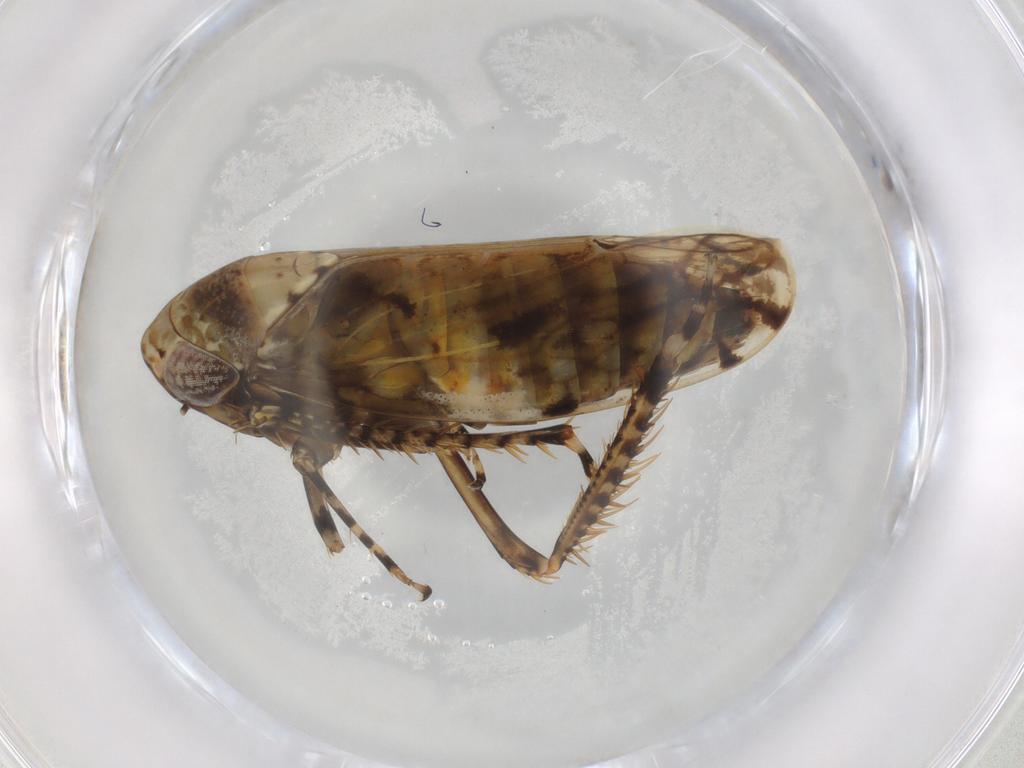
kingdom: Animalia
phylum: Arthropoda
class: Insecta
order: Hemiptera
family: Cicadellidae
